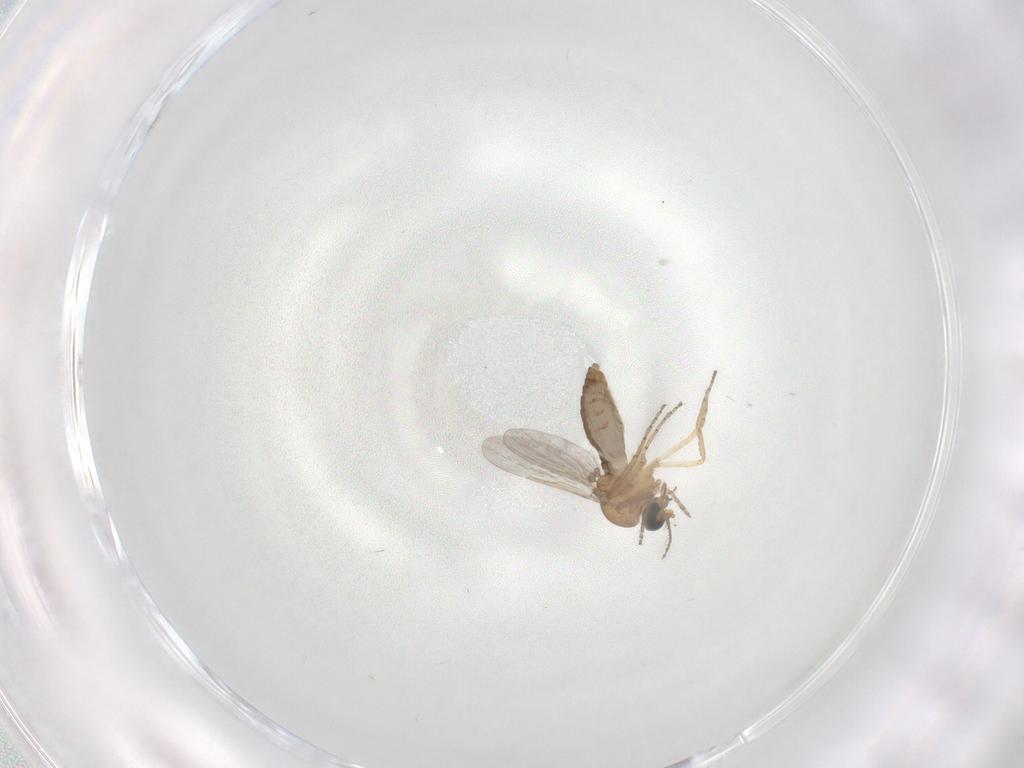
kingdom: Animalia
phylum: Arthropoda
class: Insecta
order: Diptera
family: Ceratopogonidae
